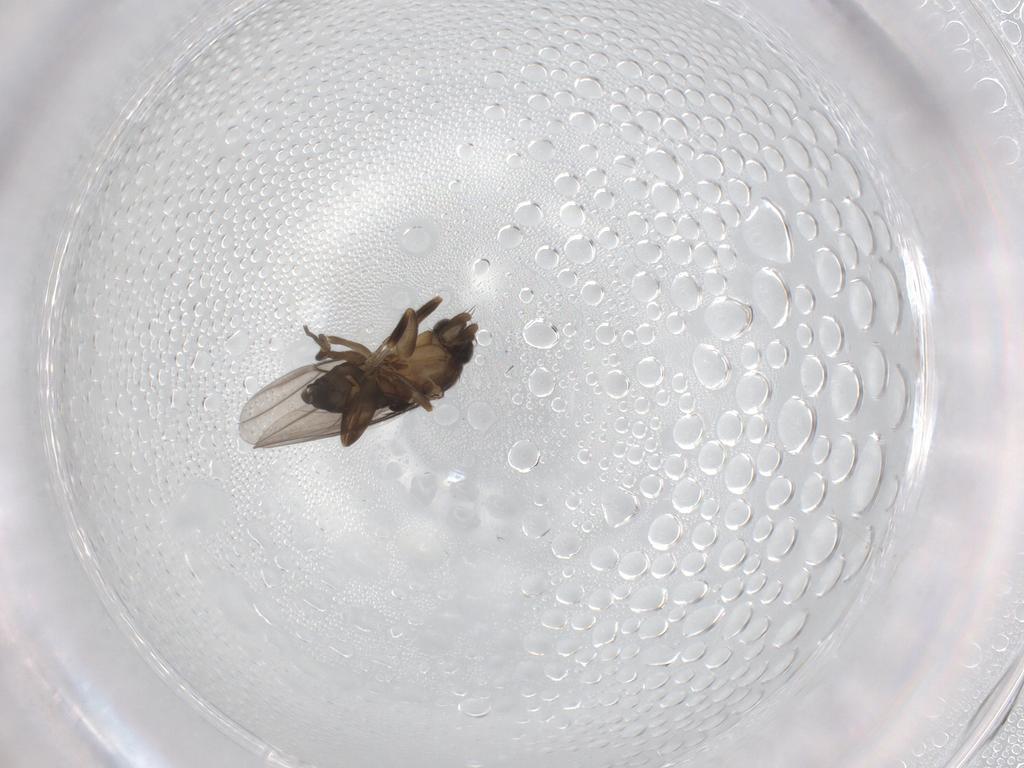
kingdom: Animalia
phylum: Arthropoda
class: Insecta
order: Diptera
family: Phoridae
